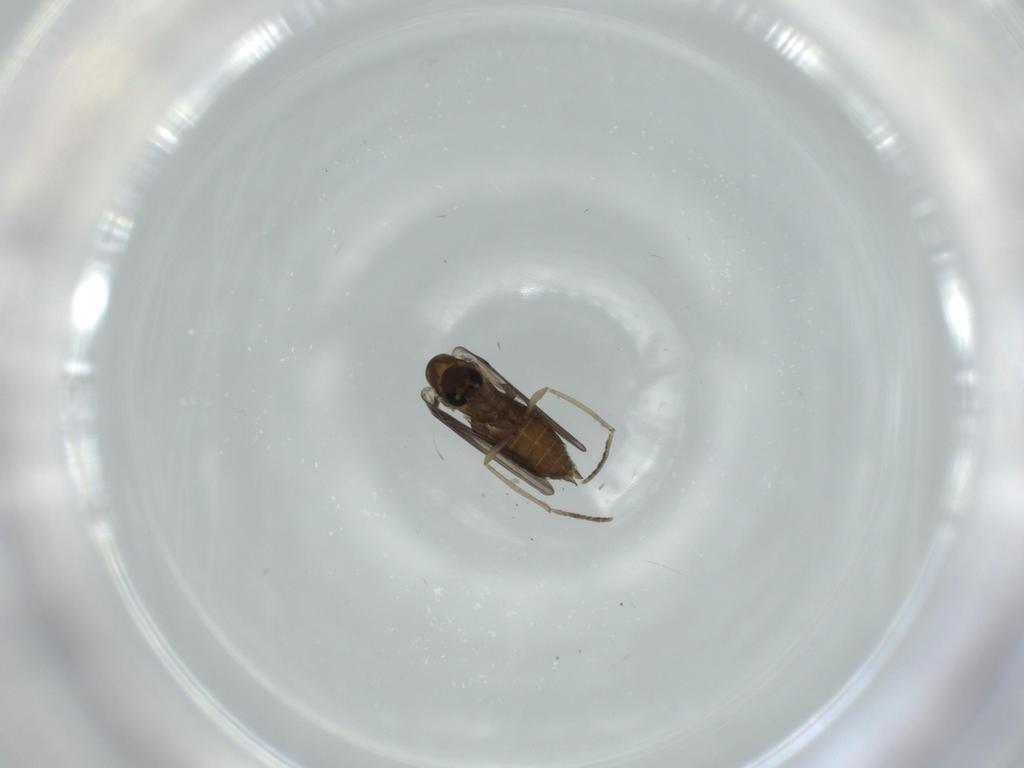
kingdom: Animalia
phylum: Arthropoda
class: Insecta
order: Diptera
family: Psychodidae
